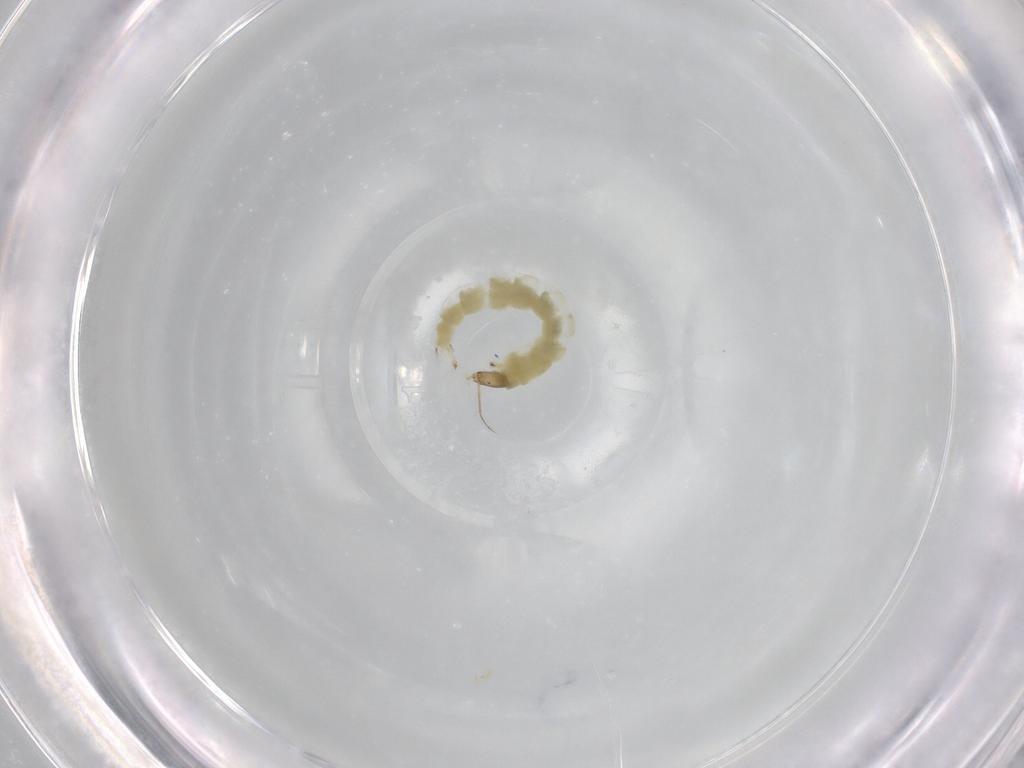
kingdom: Animalia
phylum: Arthropoda
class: Insecta
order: Diptera
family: Chironomidae
